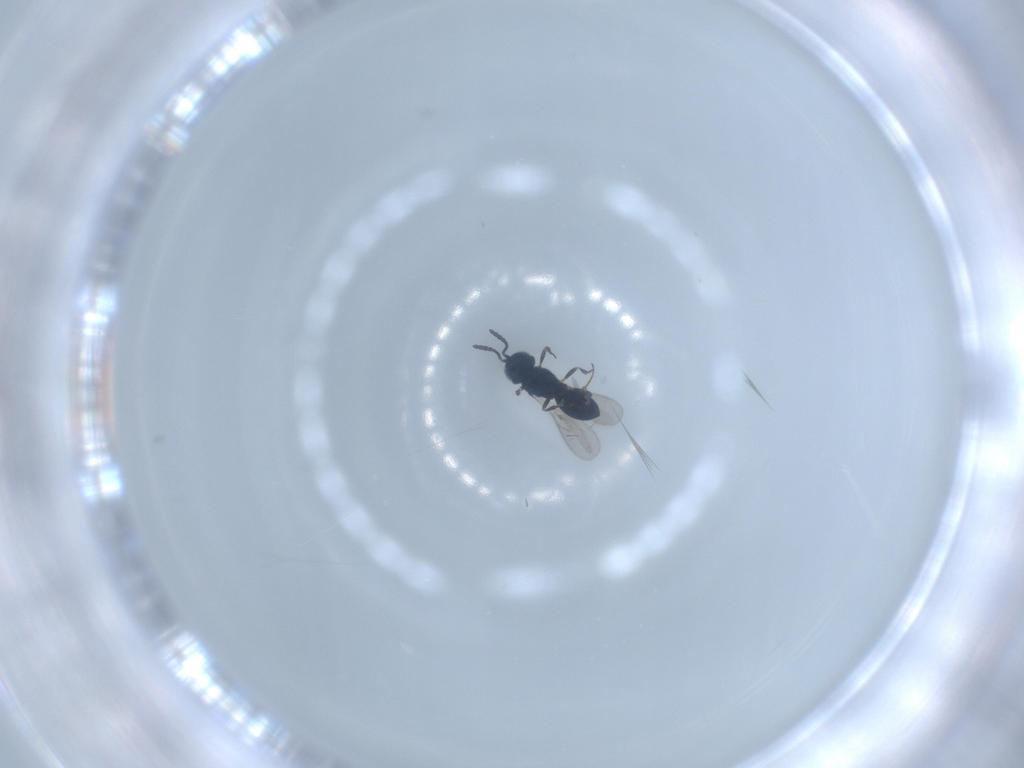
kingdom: Animalia
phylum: Arthropoda
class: Insecta
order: Hymenoptera
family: Scelionidae
